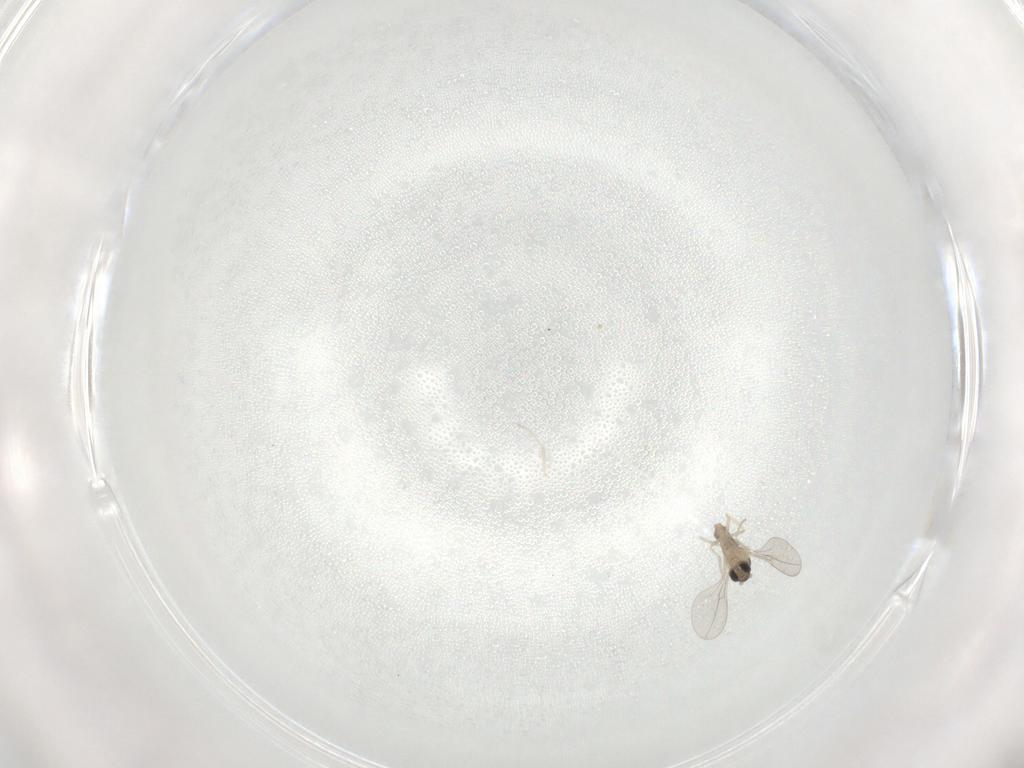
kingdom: Animalia
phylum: Arthropoda
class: Insecta
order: Diptera
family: Cecidomyiidae
